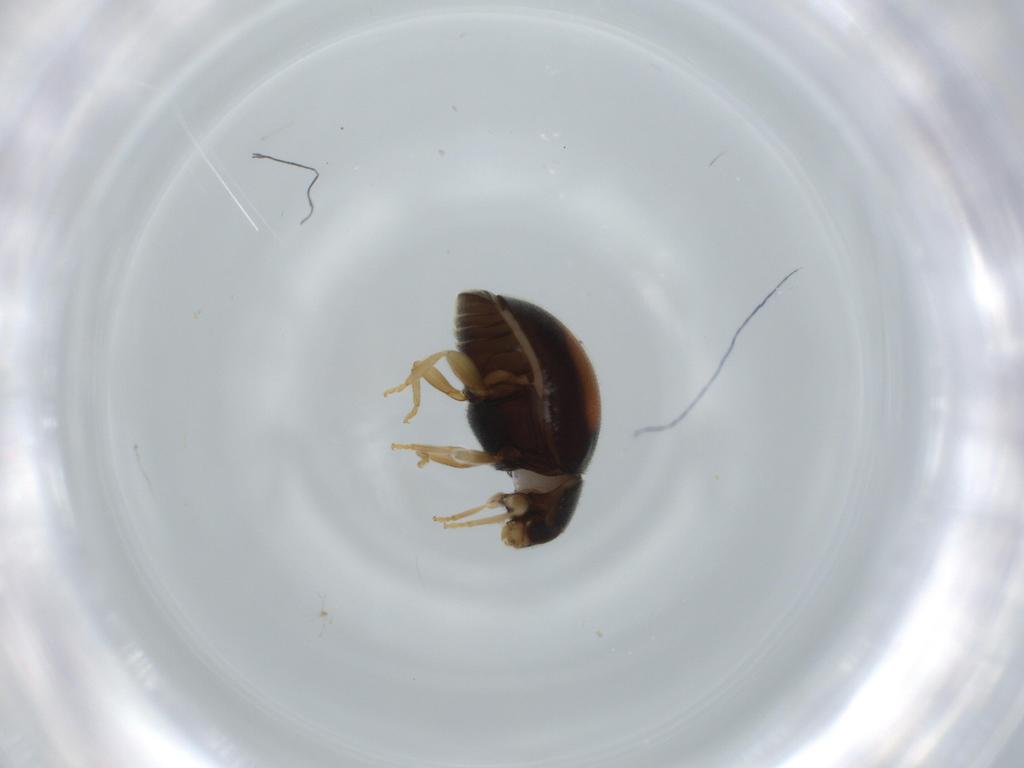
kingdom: Animalia
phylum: Arthropoda
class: Insecta
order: Coleoptera
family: Coccinellidae
